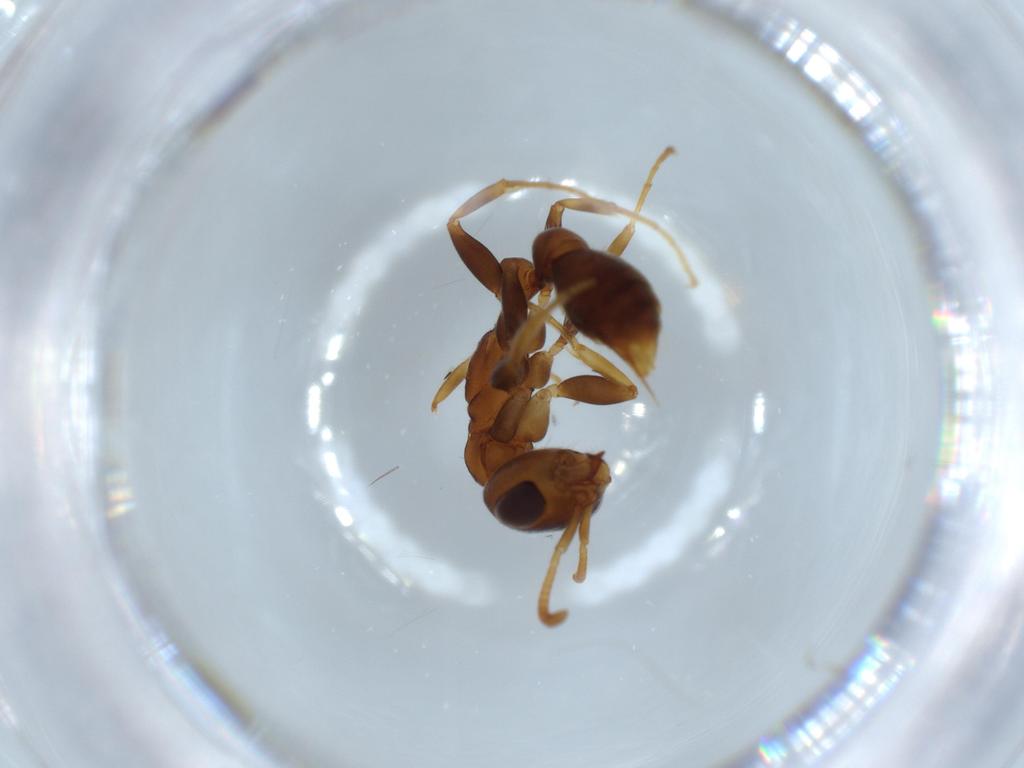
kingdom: Animalia
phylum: Arthropoda
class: Insecta
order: Hymenoptera
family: Formicidae
